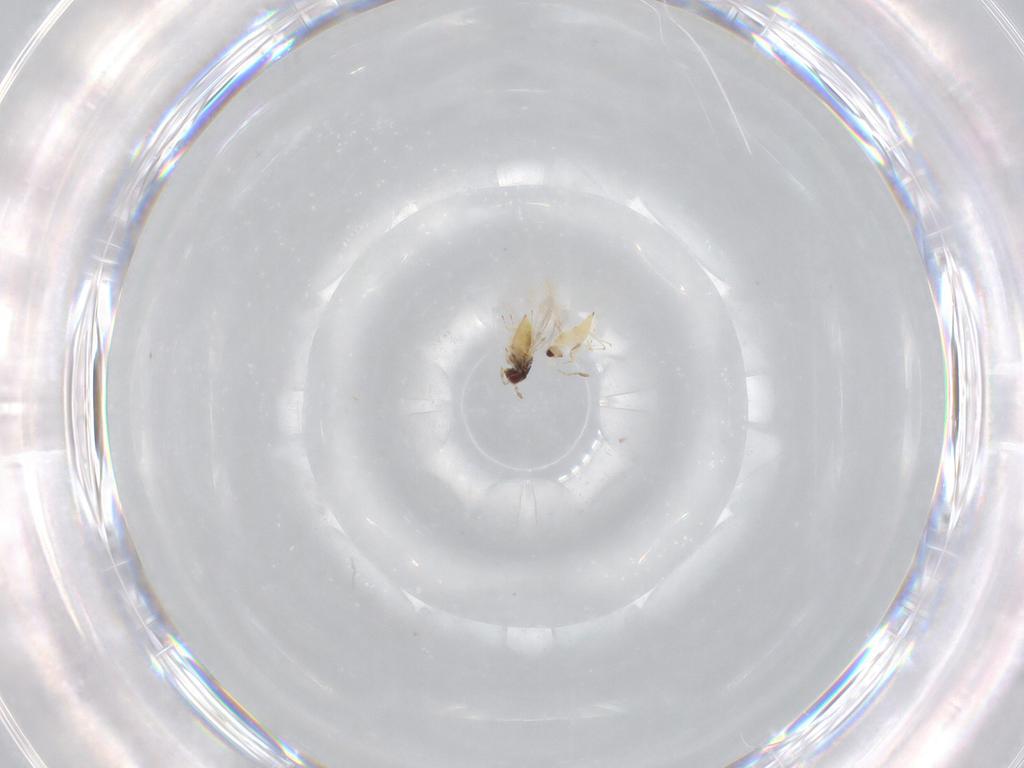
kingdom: Animalia
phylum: Arthropoda
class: Insecta
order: Hymenoptera
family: Trichogrammatidae
